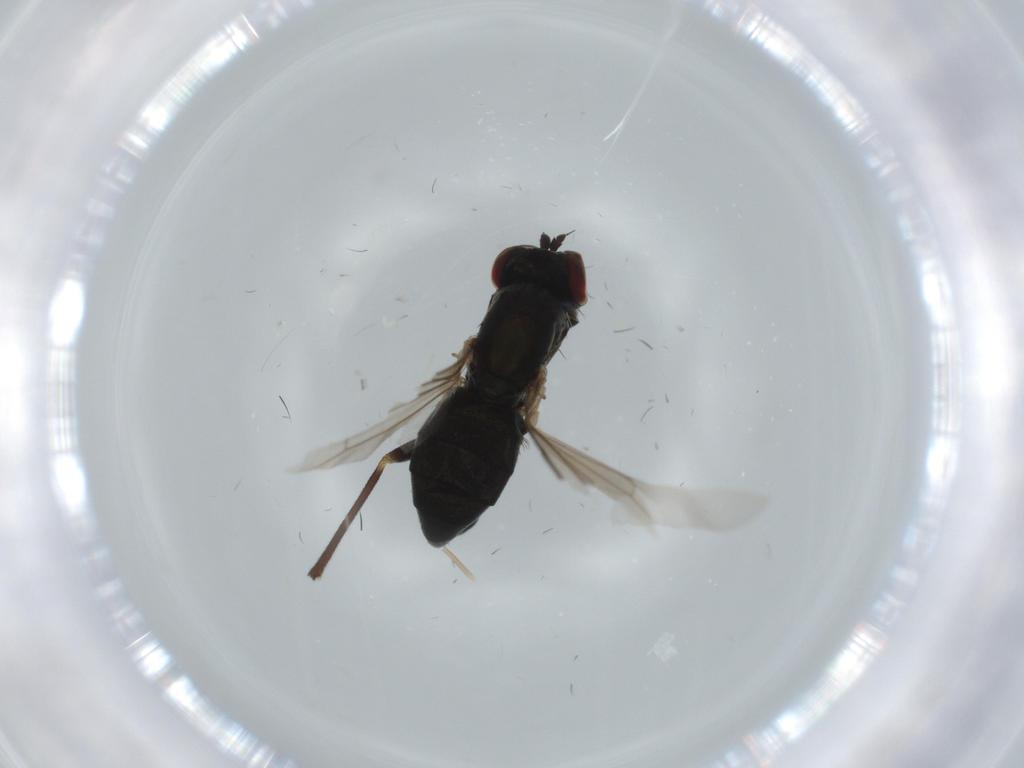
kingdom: Animalia
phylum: Arthropoda
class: Insecta
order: Diptera
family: Dolichopodidae
